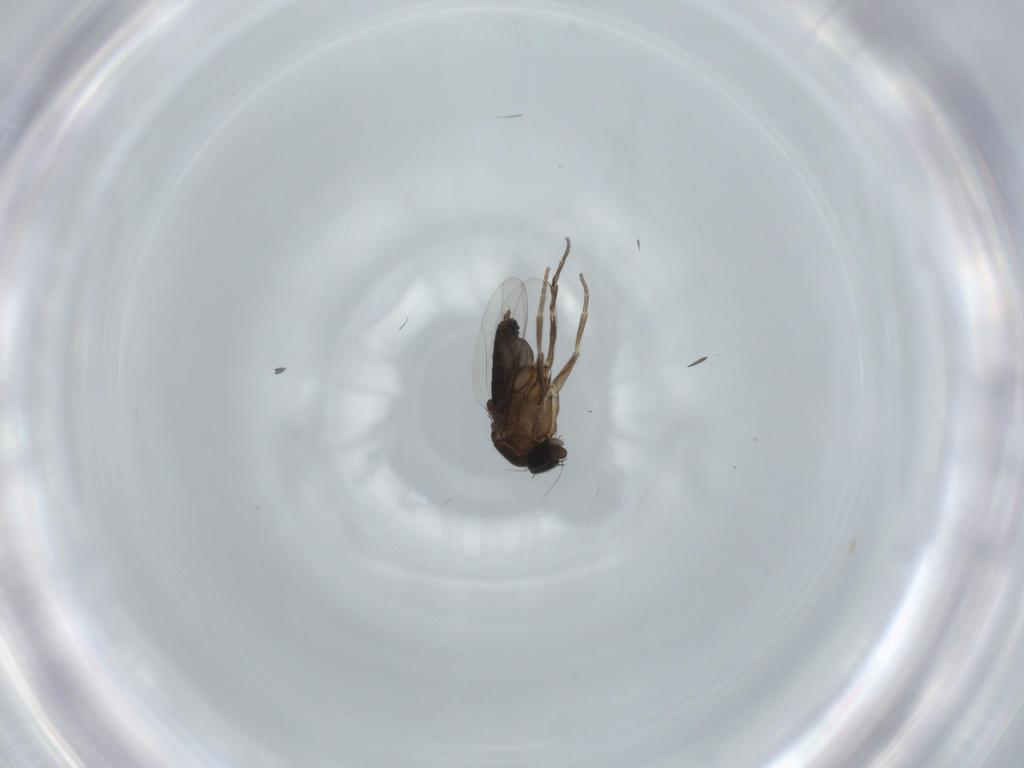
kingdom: Animalia
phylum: Arthropoda
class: Insecta
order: Diptera
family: Phoridae
